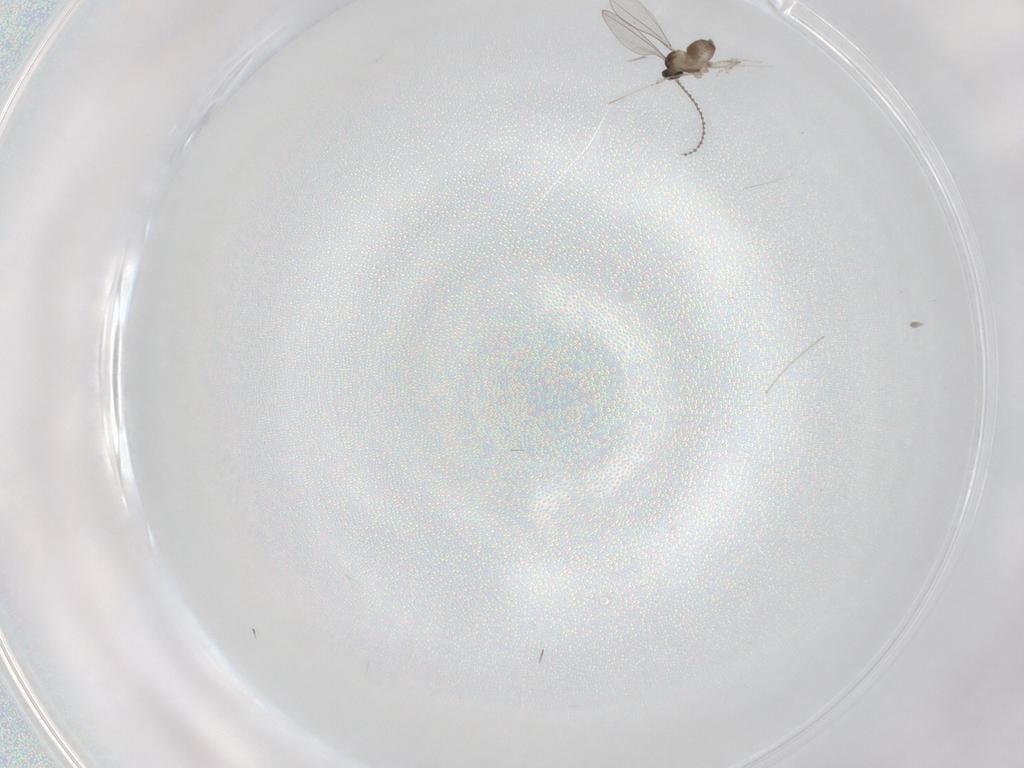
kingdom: Animalia
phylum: Arthropoda
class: Insecta
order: Diptera
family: Cecidomyiidae
